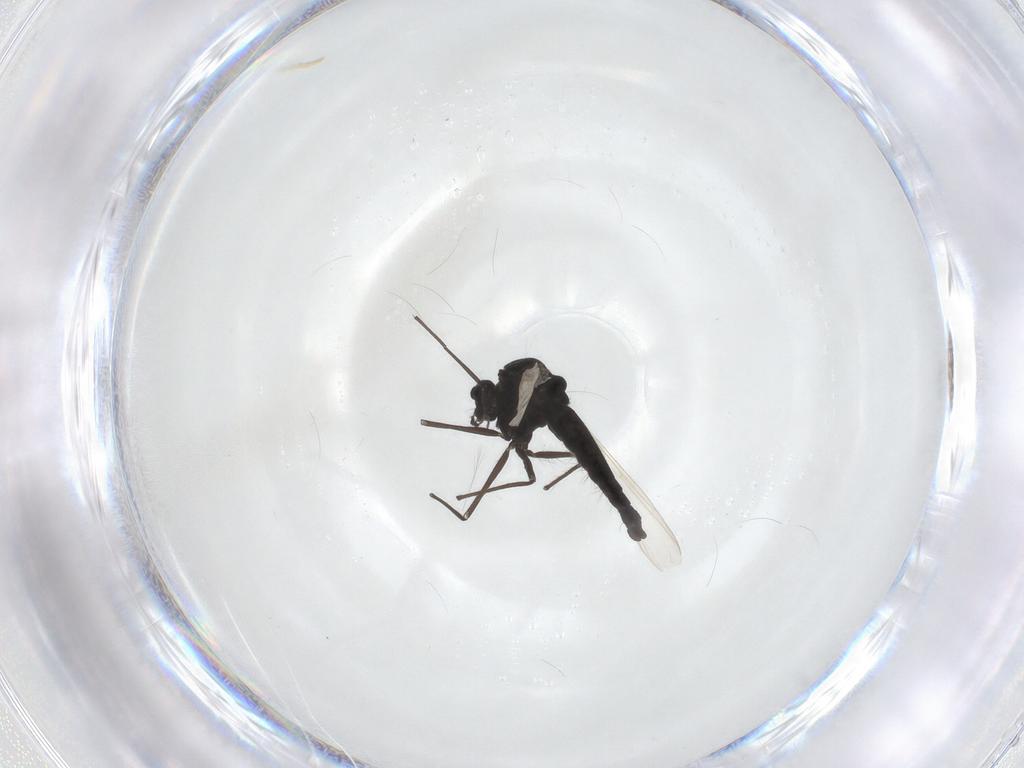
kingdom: Animalia
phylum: Arthropoda
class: Insecta
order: Diptera
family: Chironomidae
